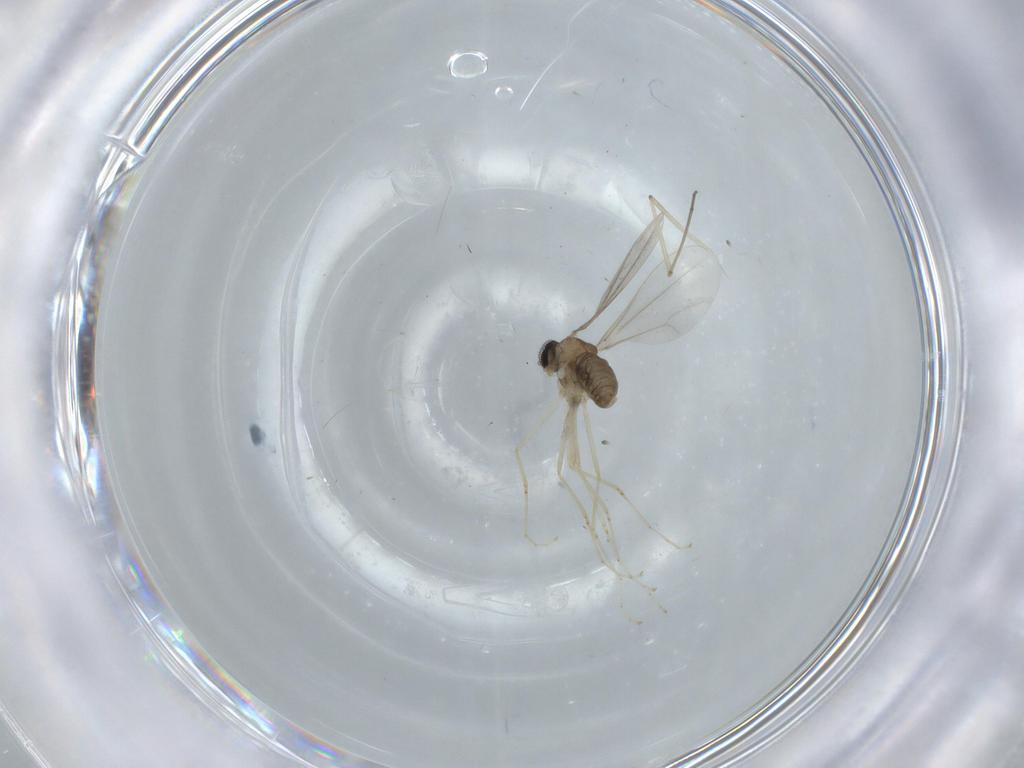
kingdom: Animalia
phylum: Arthropoda
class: Insecta
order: Diptera
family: Cecidomyiidae
